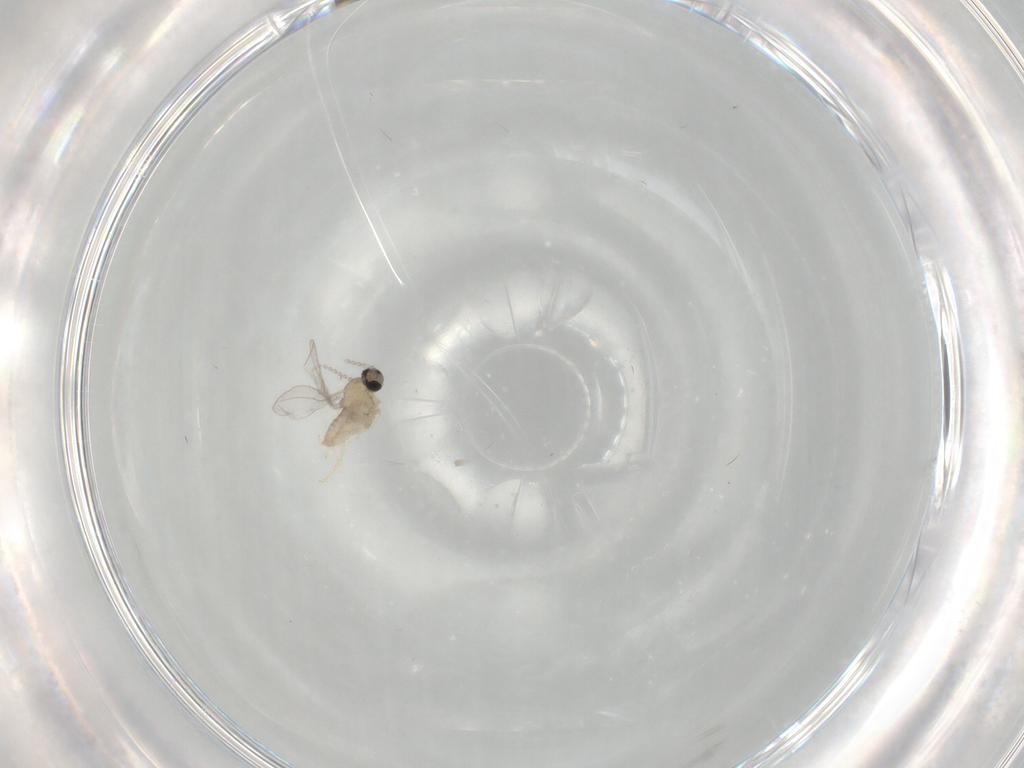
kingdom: Animalia
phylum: Arthropoda
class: Insecta
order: Diptera
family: Cecidomyiidae
